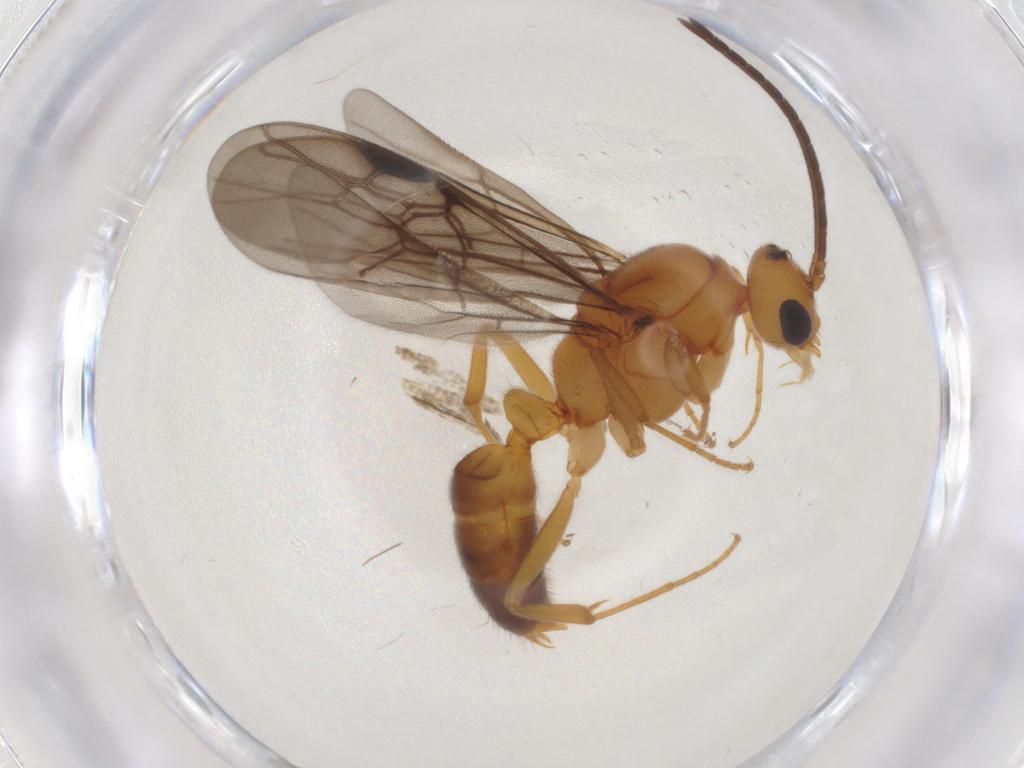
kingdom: Animalia
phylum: Arthropoda
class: Insecta
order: Hymenoptera
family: Formicidae
